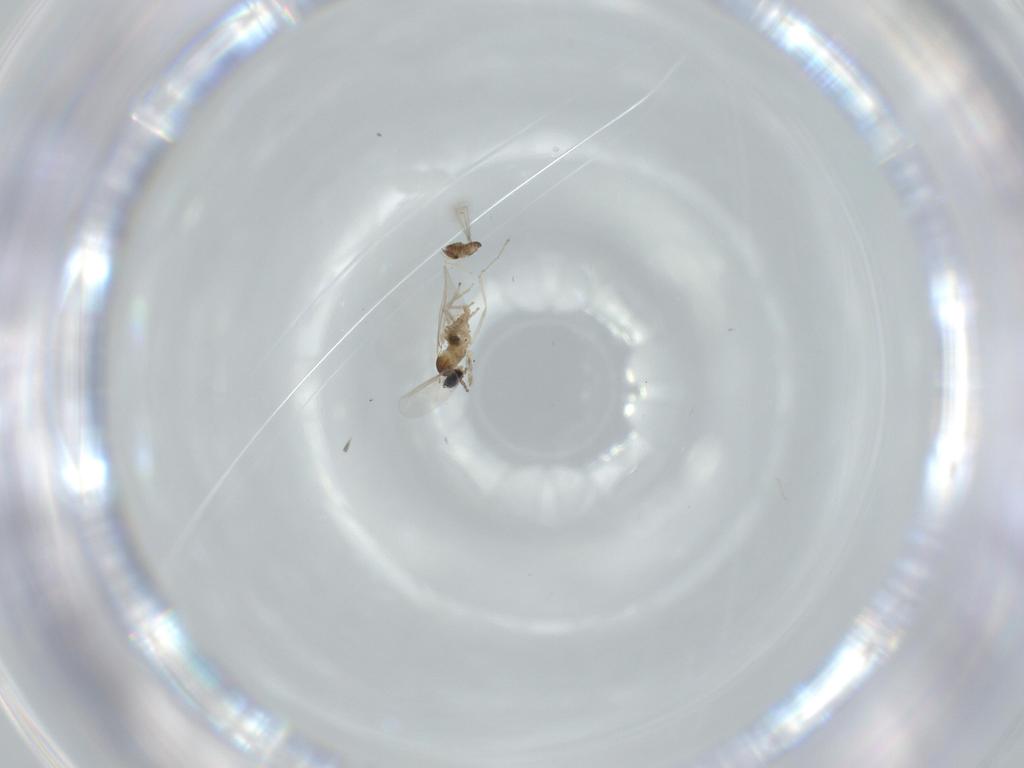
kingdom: Animalia
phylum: Arthropoda
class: Insecta
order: Diptera
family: Cecidomyiidae
